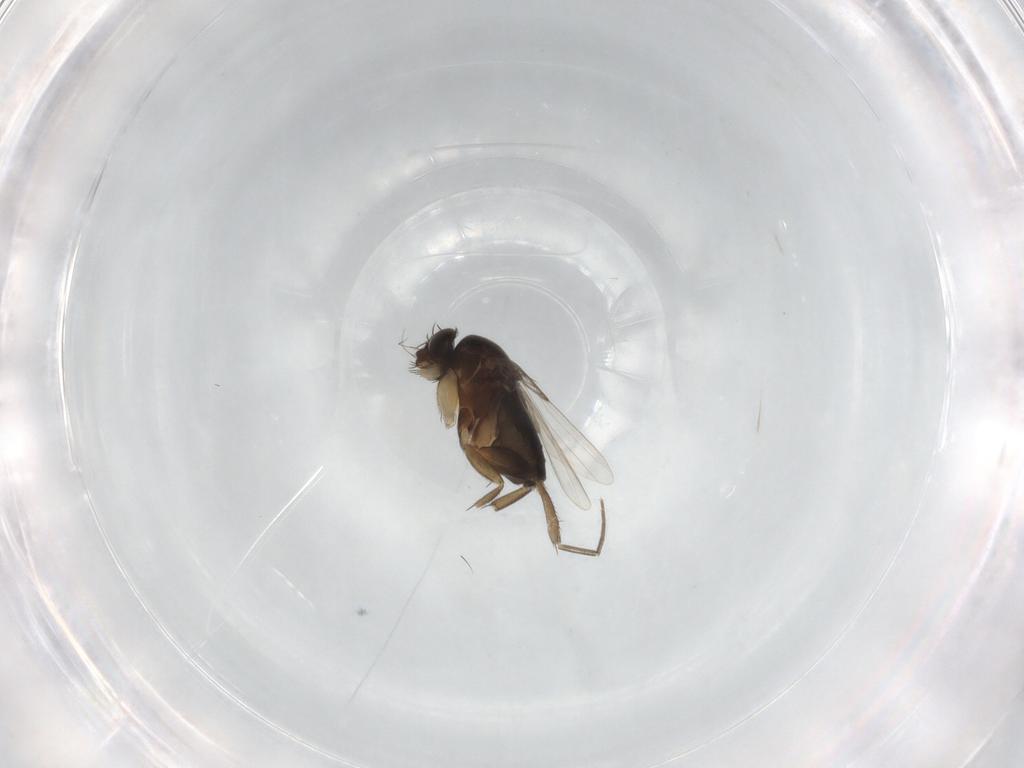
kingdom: Animalia
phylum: Arthropoda
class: Insecta
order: Diptera
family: Phoridae
